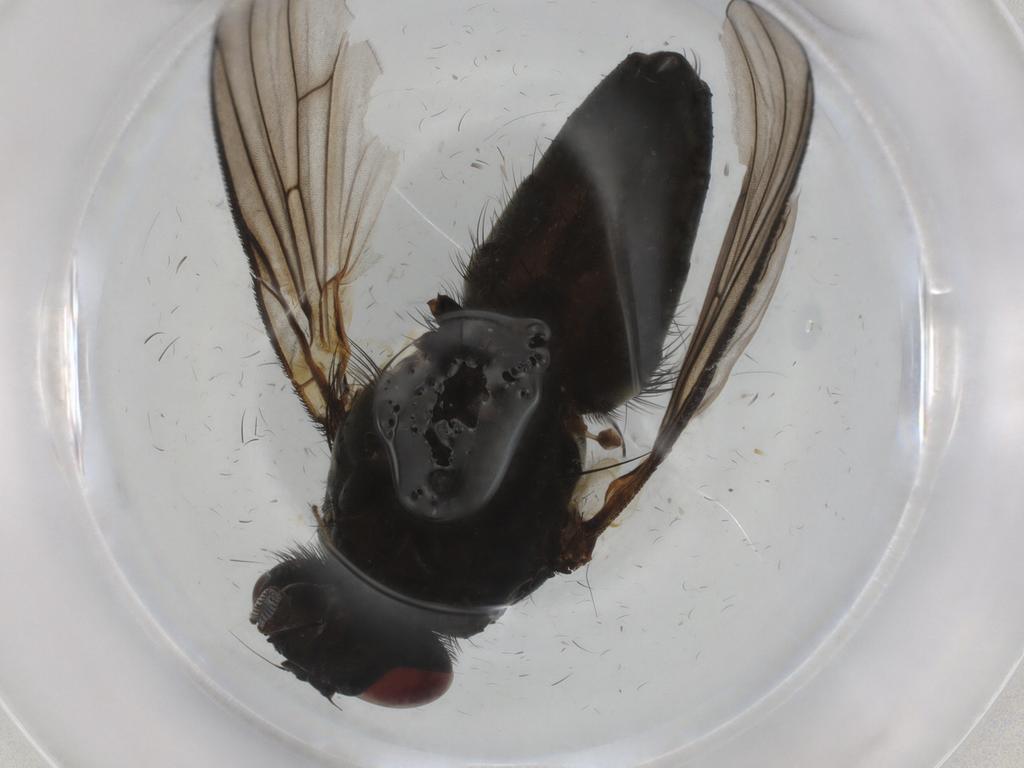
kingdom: Animalia
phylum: Arthropoda
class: Insecta
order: Diptera
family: Muscidae
